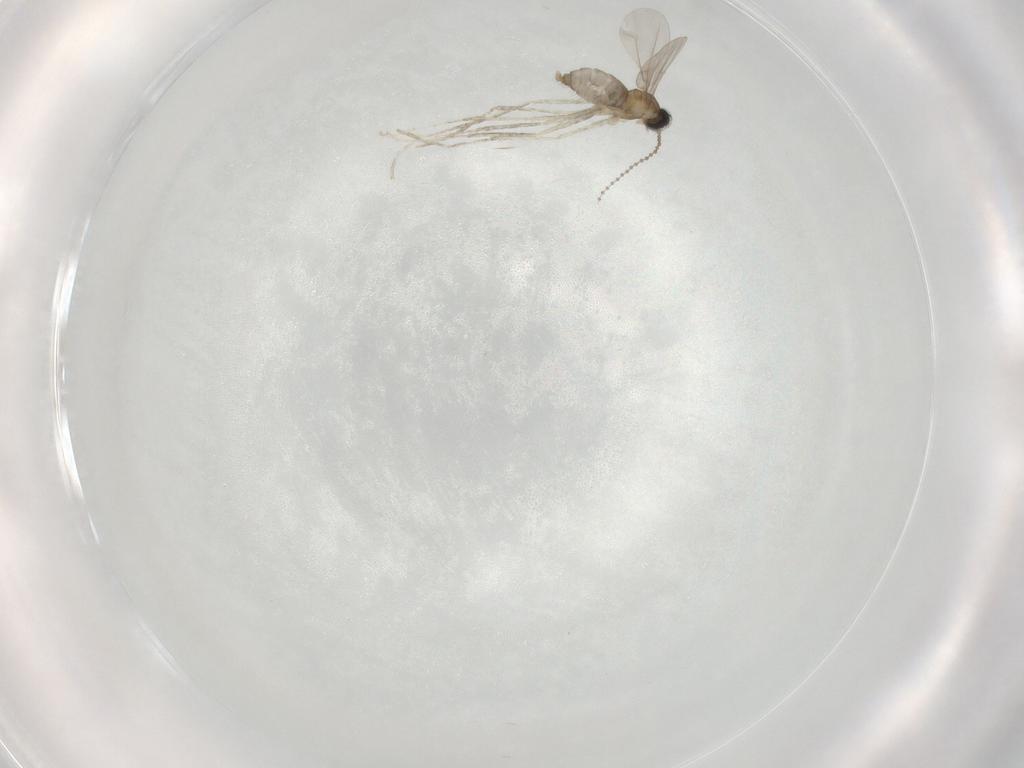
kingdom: Animalia
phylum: Arthropoda
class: Insecta
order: Diptera
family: Cecidomyiidae
